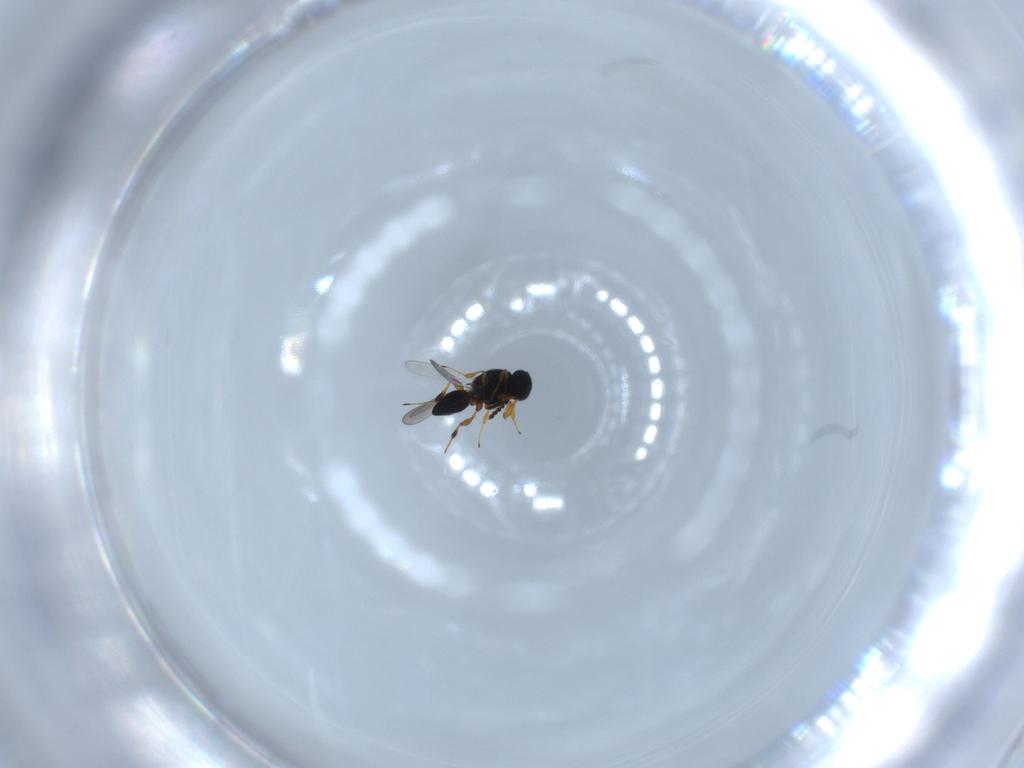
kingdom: Animalia
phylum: Arthropoda
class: Insecta
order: Hymenoptera
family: Platygastridae
